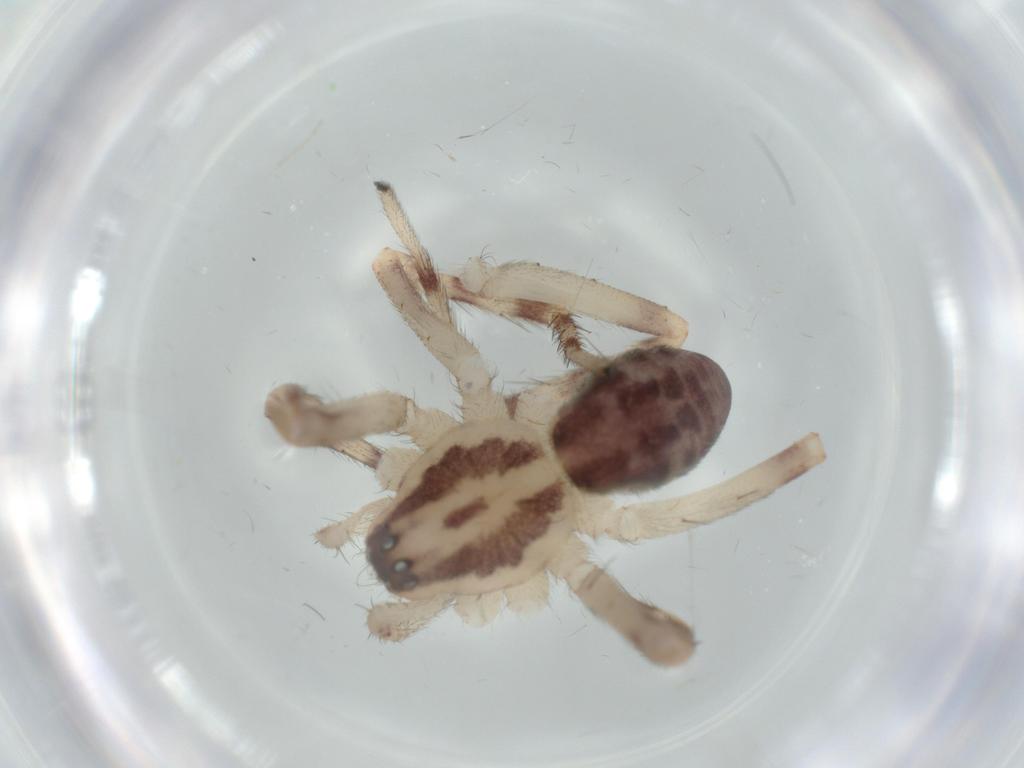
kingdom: Animalia
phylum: Arthropoda
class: Arachnida
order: Araneae
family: Corinnidae
